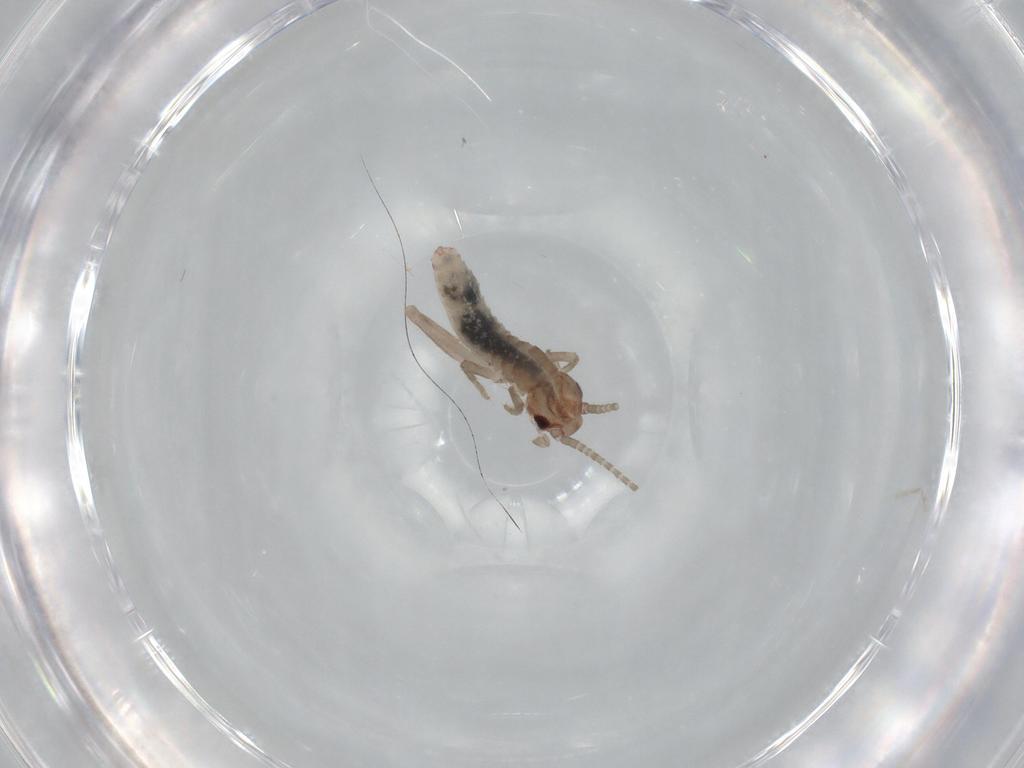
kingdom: Animalia
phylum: Arthropoda
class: Insecta
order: Orthoptera
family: Mogoplistidae
